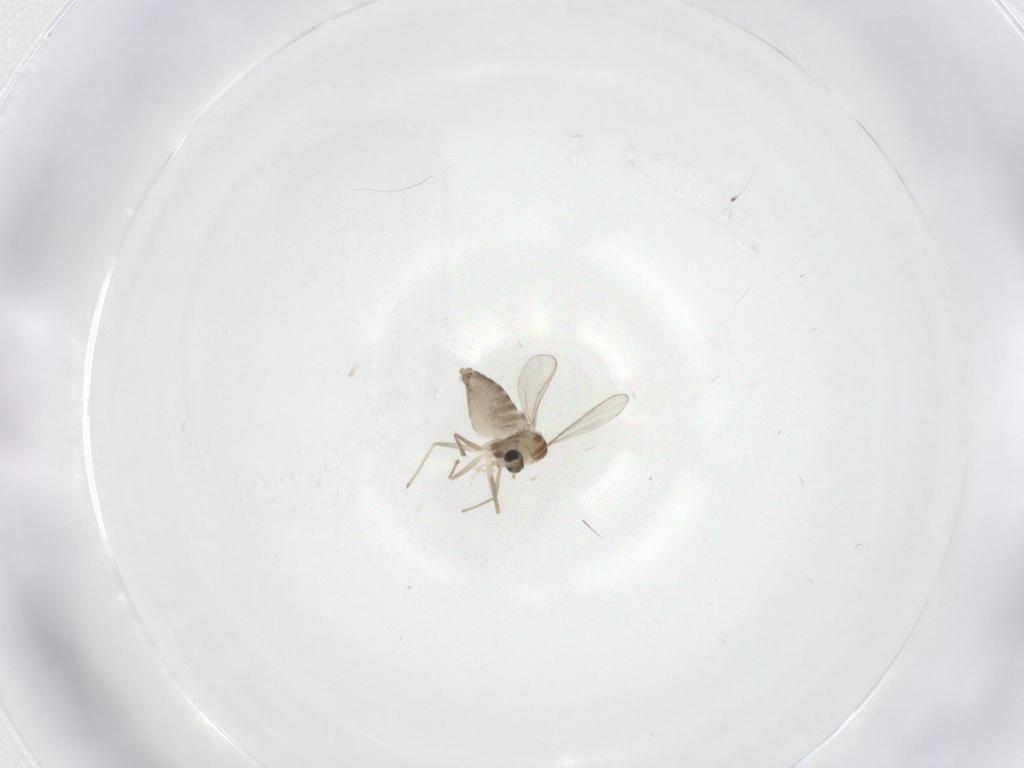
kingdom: Animalia
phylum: Arthropoda
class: Insecta
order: Diptera
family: Chironomidae
